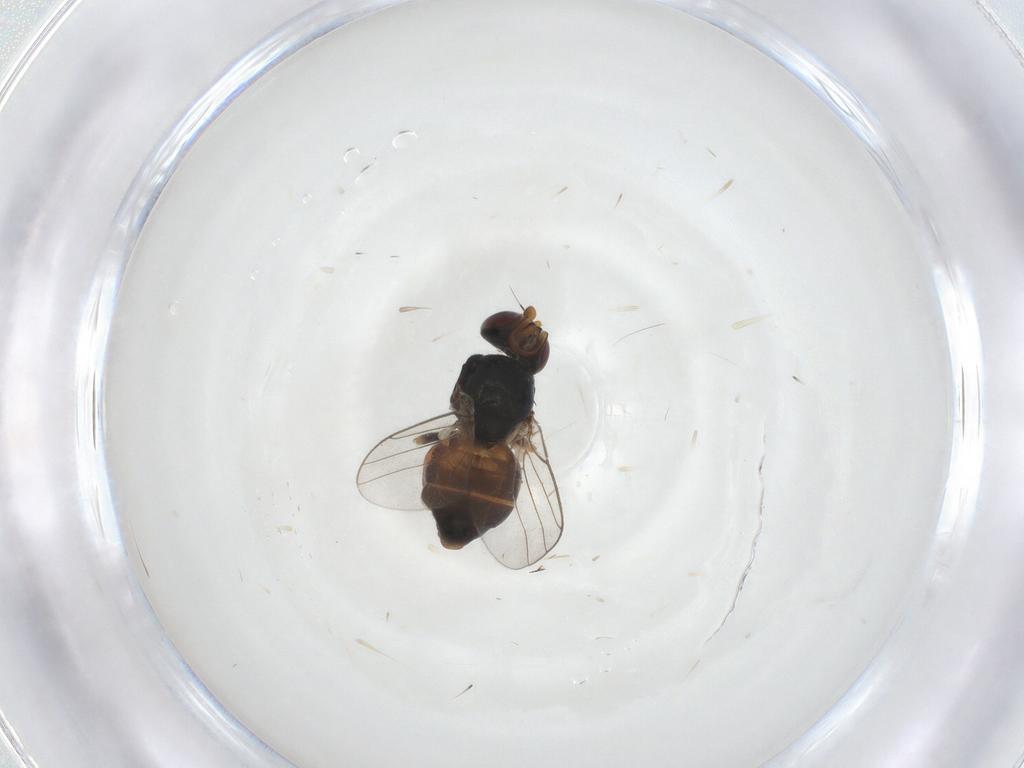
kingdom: Animalia
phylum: Arthropoda
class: Insecta
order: Diptera
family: Chloropidae
